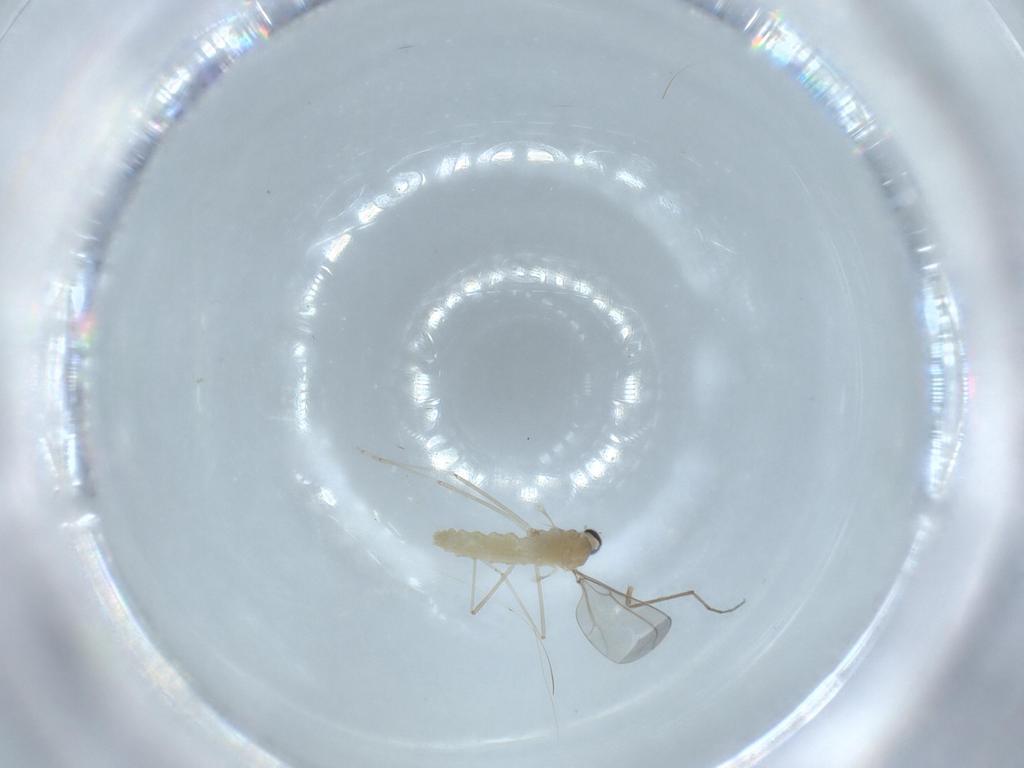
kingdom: Animalia
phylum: Arthropoda
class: Insecta
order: Diptera
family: Cecidomyiidae
